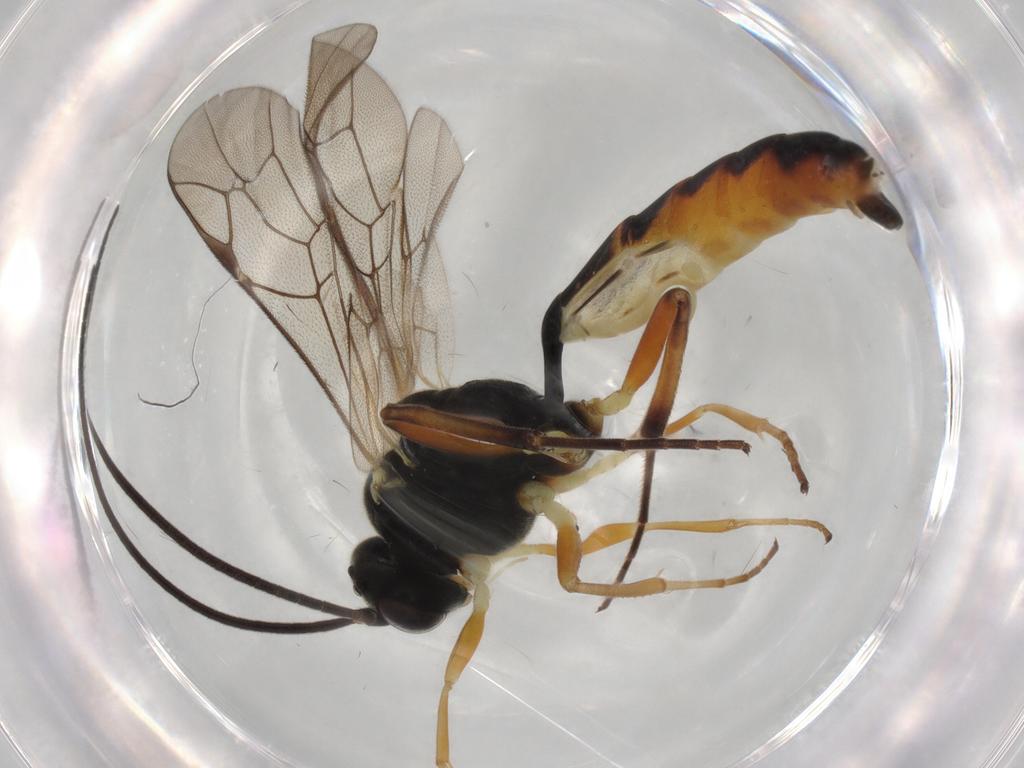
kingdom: Animalia
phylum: Arthropoda
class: Insecta
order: Hymenoptera
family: Ichneumonidae
